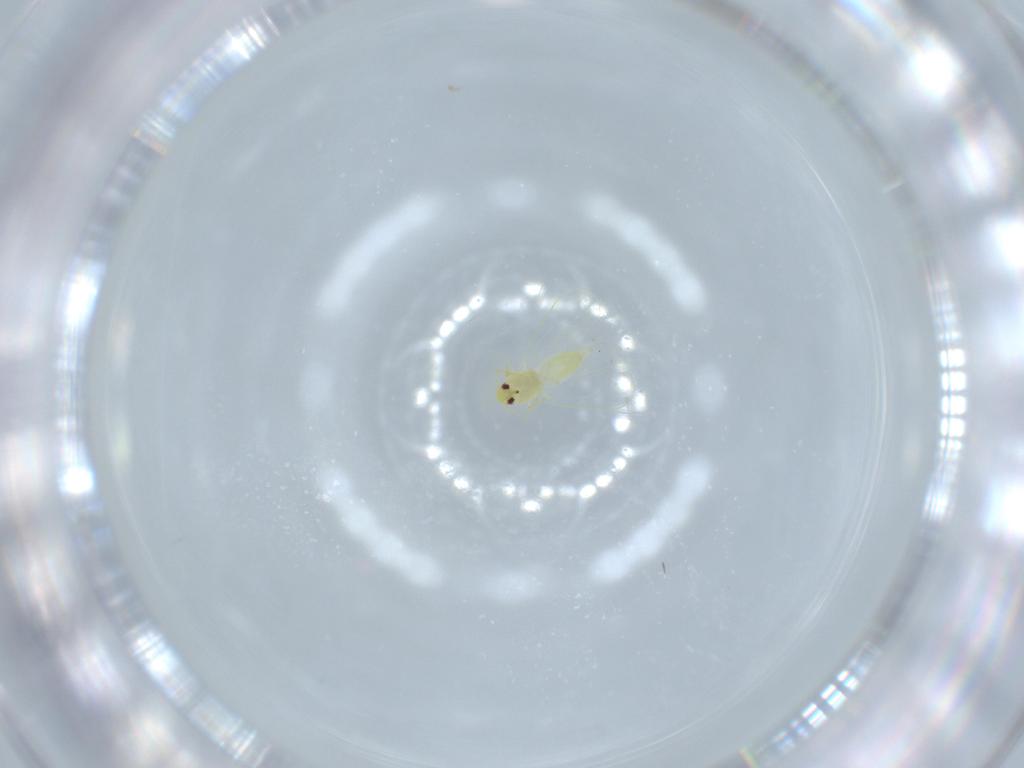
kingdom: Animalia
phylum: Arthropoda
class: Insecta
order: Hemiptera
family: Aleyrodidae
